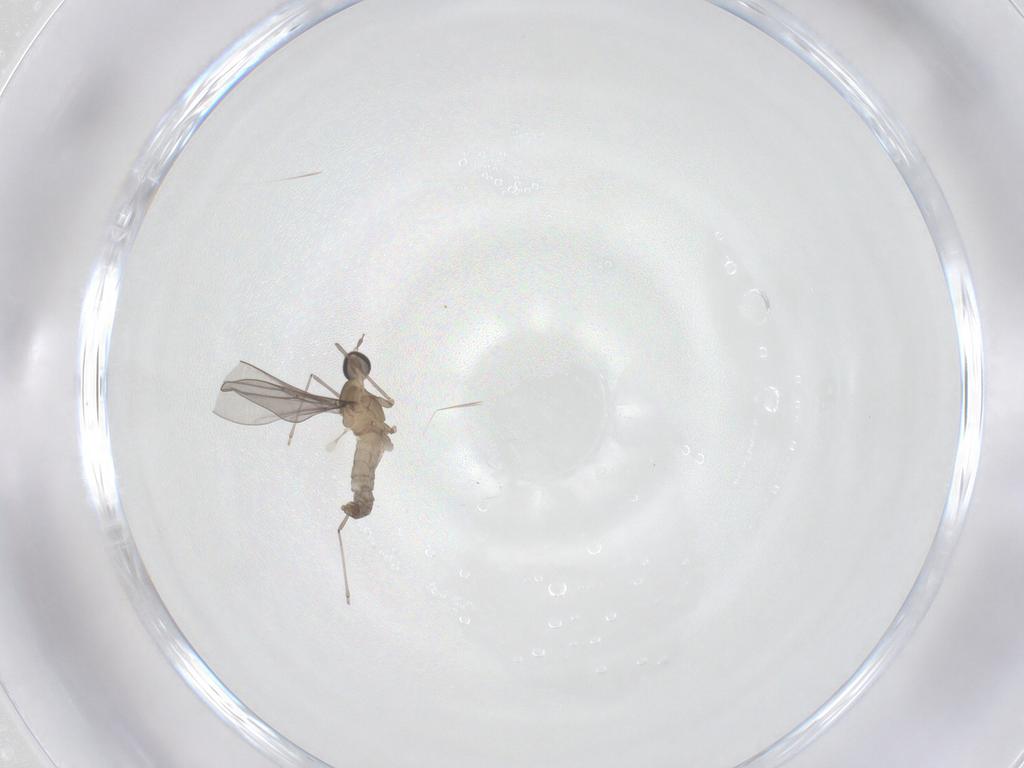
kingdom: Animalia
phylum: Arthropoda
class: Insecta
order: Diptera
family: Cecidomyiidae
